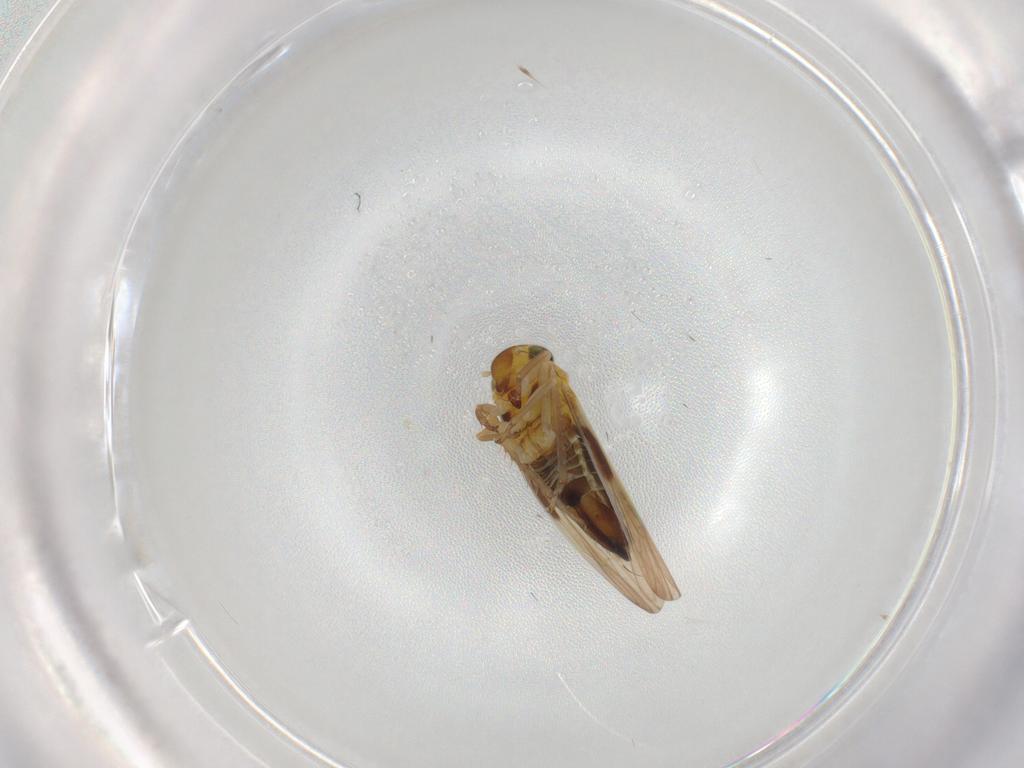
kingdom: Animalia
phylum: Arthropoda
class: Insecta
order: Hemiptera
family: Aleyrodidae
